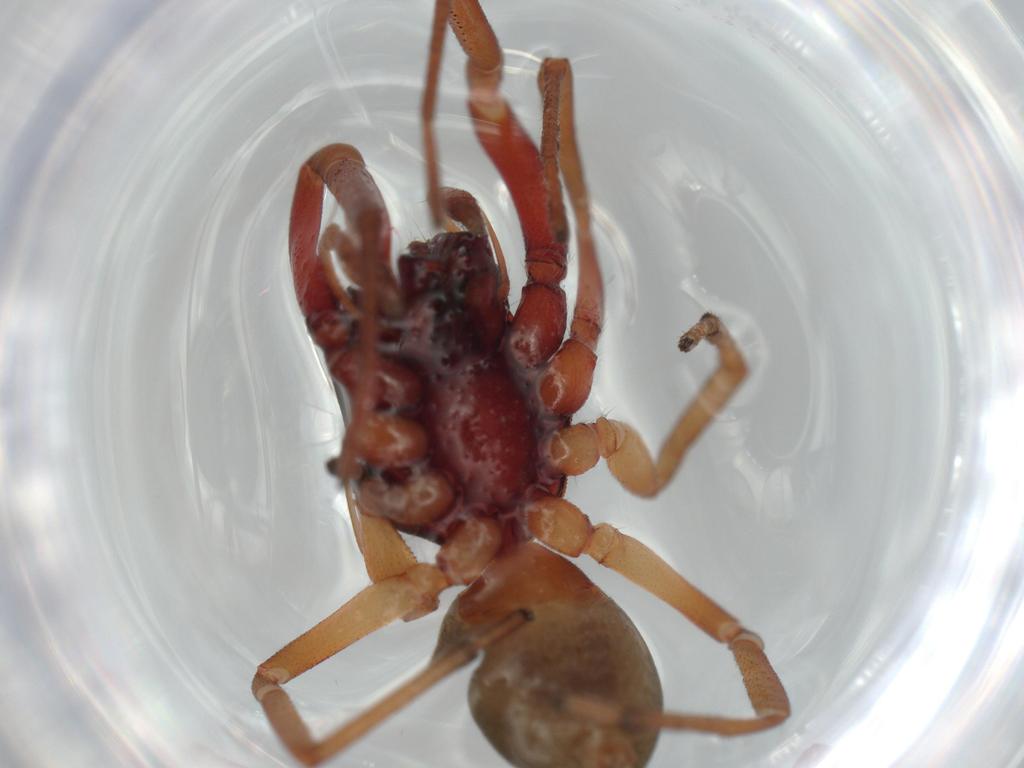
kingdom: Animalia
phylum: Arthropoda
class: Arachnida
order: Araneae
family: Trachelidae
